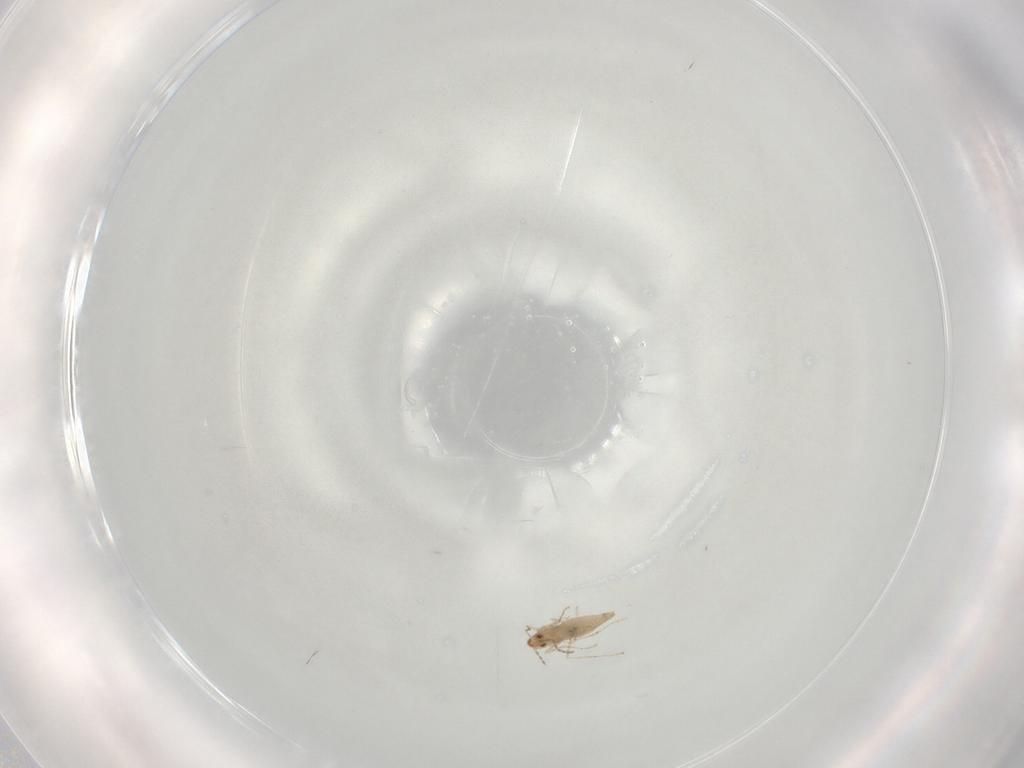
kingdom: Animalia
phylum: Arthropoda
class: Insecta
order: Diptera
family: Cecidomyiidae
